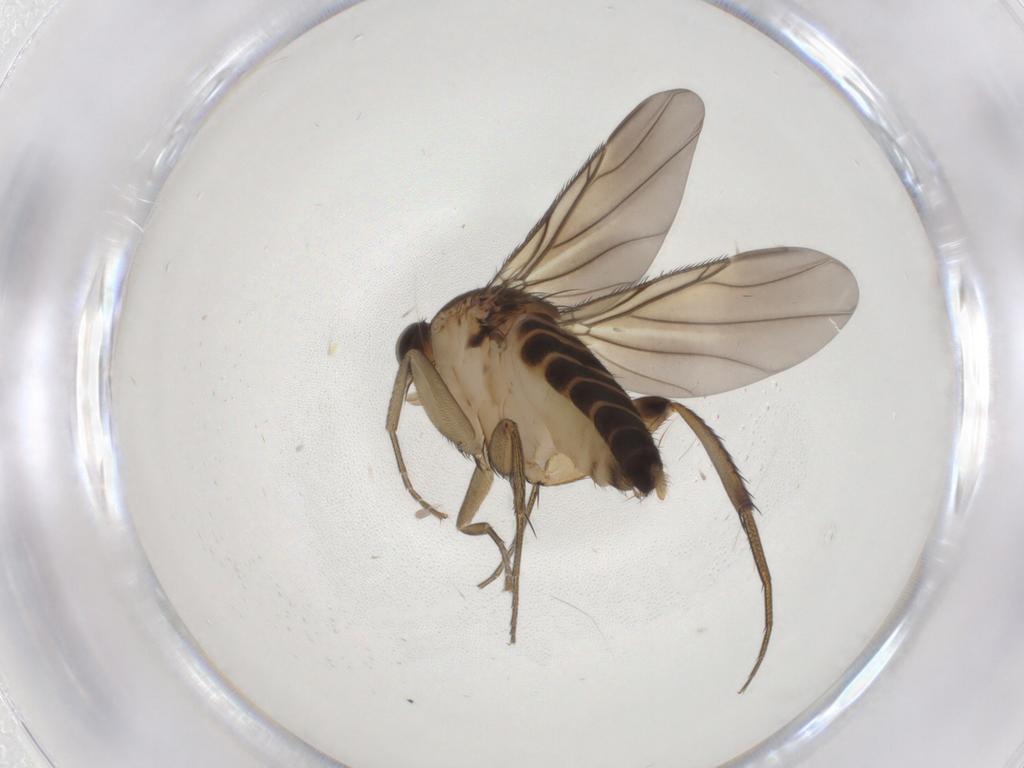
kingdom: Animalia
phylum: Arthropoda
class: Insecta
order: Diptera
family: Phoridae
